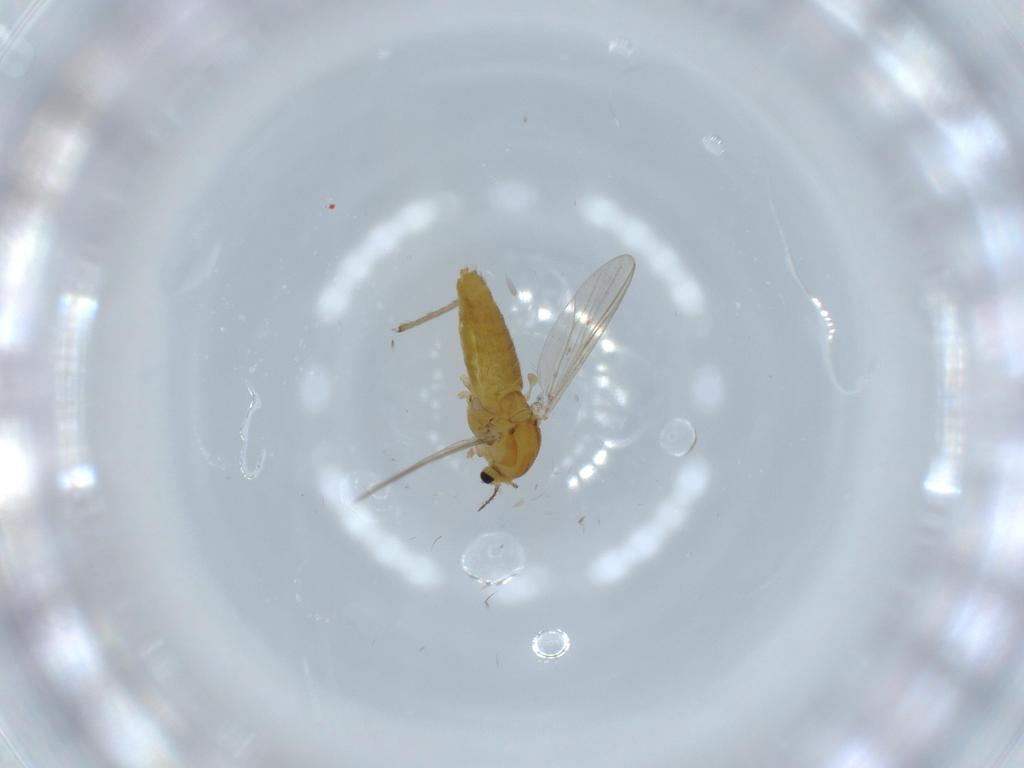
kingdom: Animalia
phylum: Arthropoda
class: Insecta
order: Diptera
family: Chironomidae
